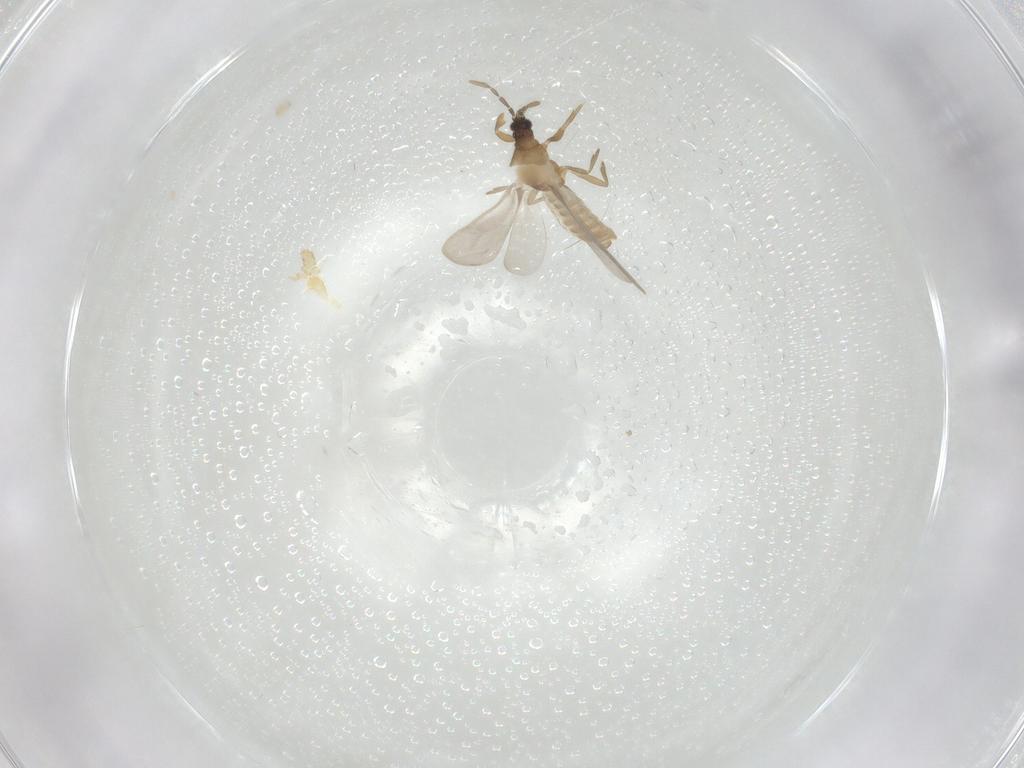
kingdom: Animalia
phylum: Arthropoda
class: Insecta
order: Hemiptera
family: Enicocephalidae
